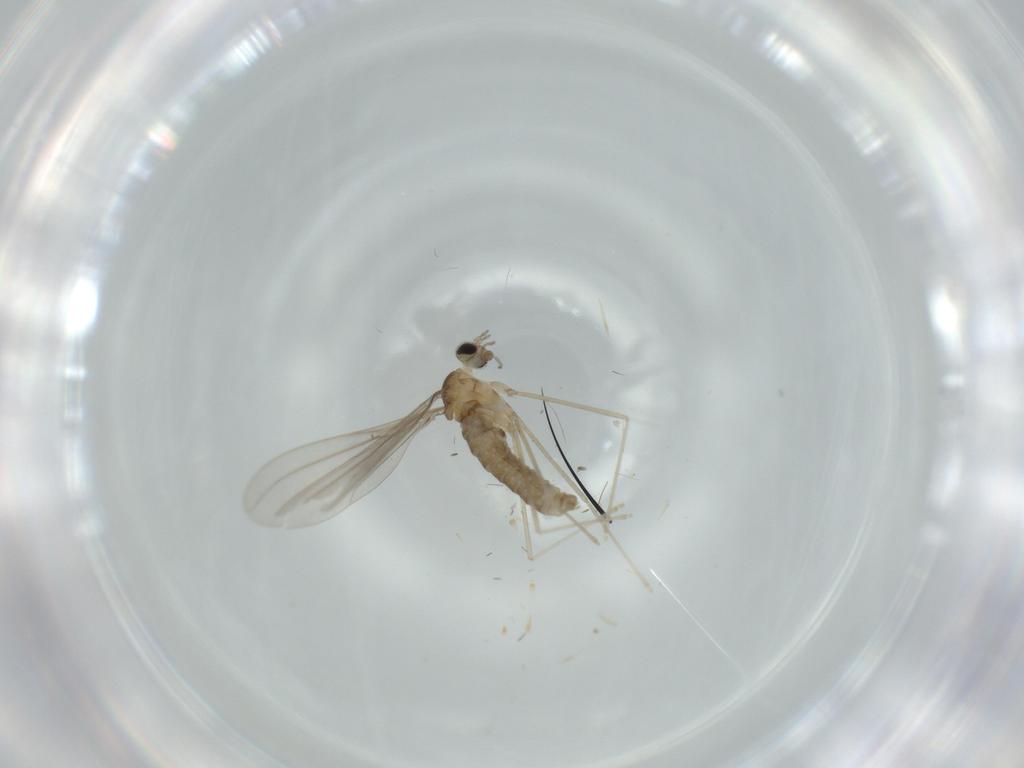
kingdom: Animalia
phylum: Arthropoda
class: Insecta
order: Diptera
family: Cecidomyiidae
